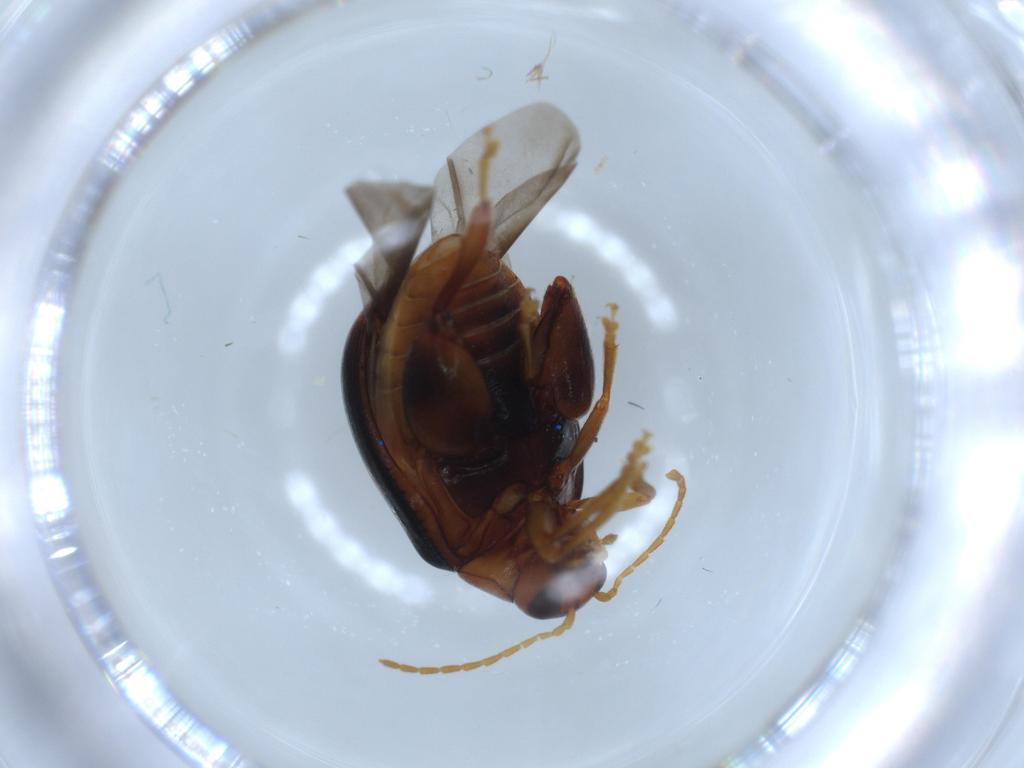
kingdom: Animalia
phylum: Arthropoda
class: Insecta
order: Coleoptera
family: Chrysomelidae
